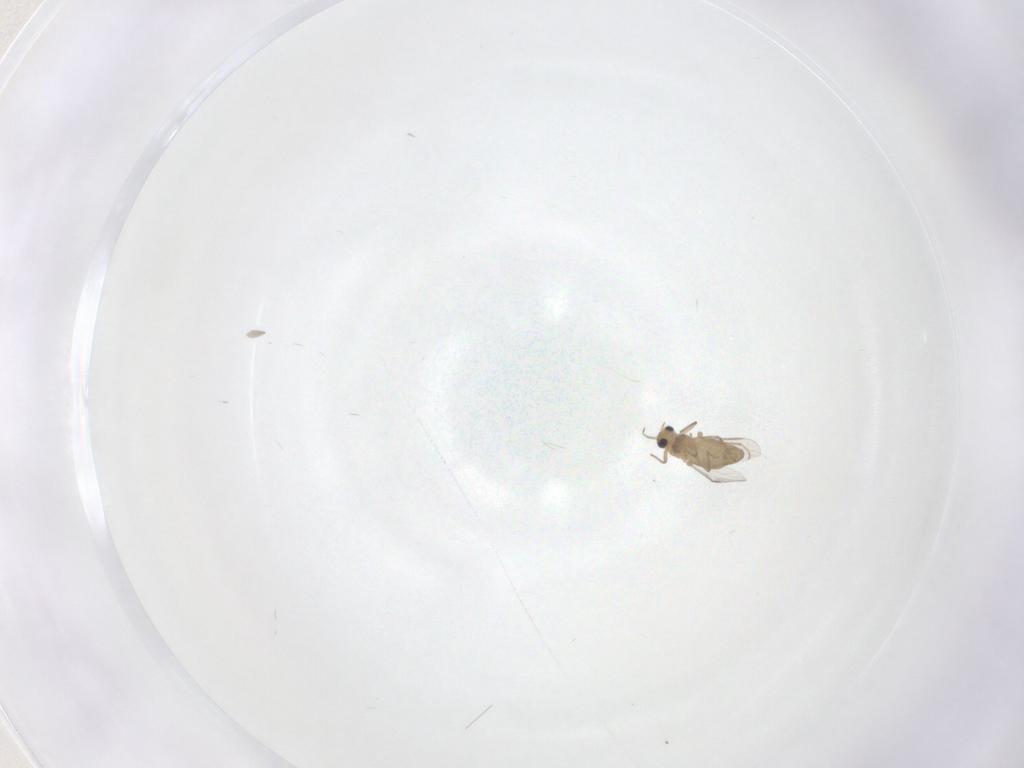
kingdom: Animalia
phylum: Arthropoda
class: Insecta
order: Diptera
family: Chironomidae
